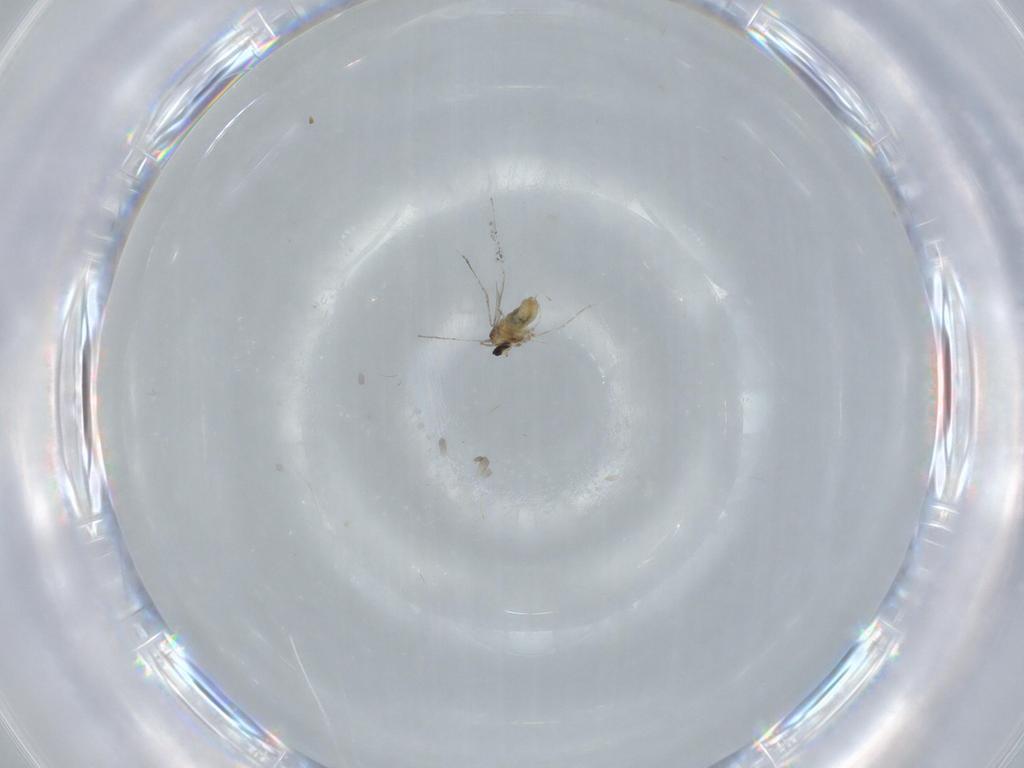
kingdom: Animalia
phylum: Arthropoda
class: Insecta
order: Diptera
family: Cecidomyiidae
